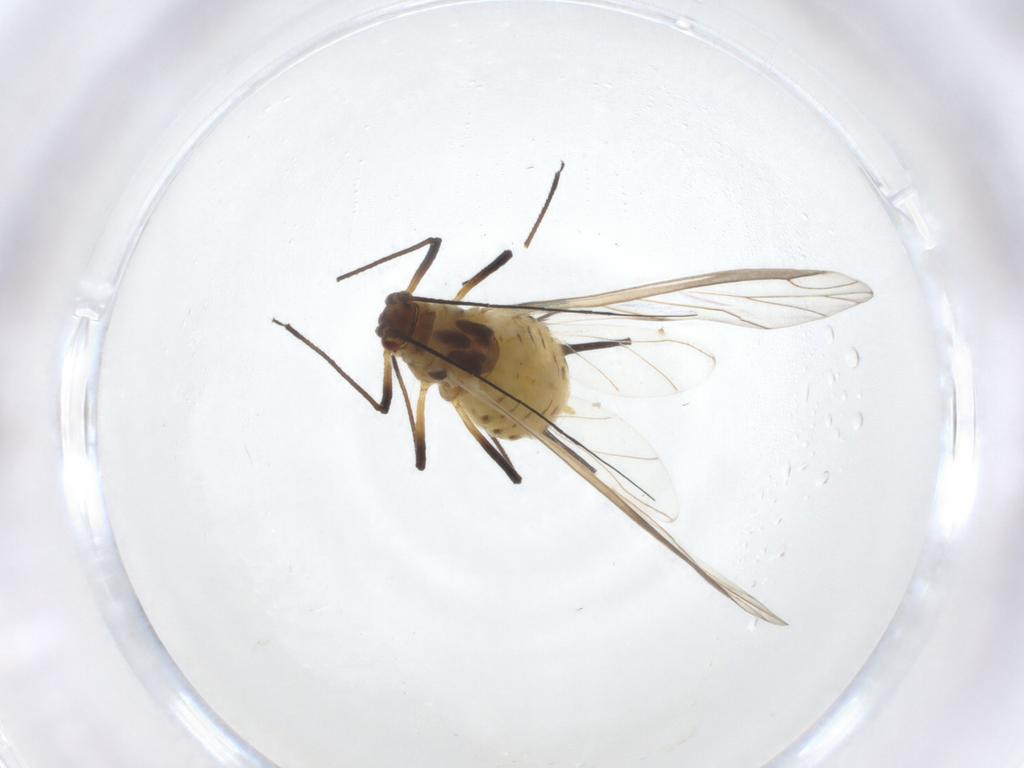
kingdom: Animalia
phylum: Arthropoda
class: Insecta
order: Hemiptera
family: Aphididae
